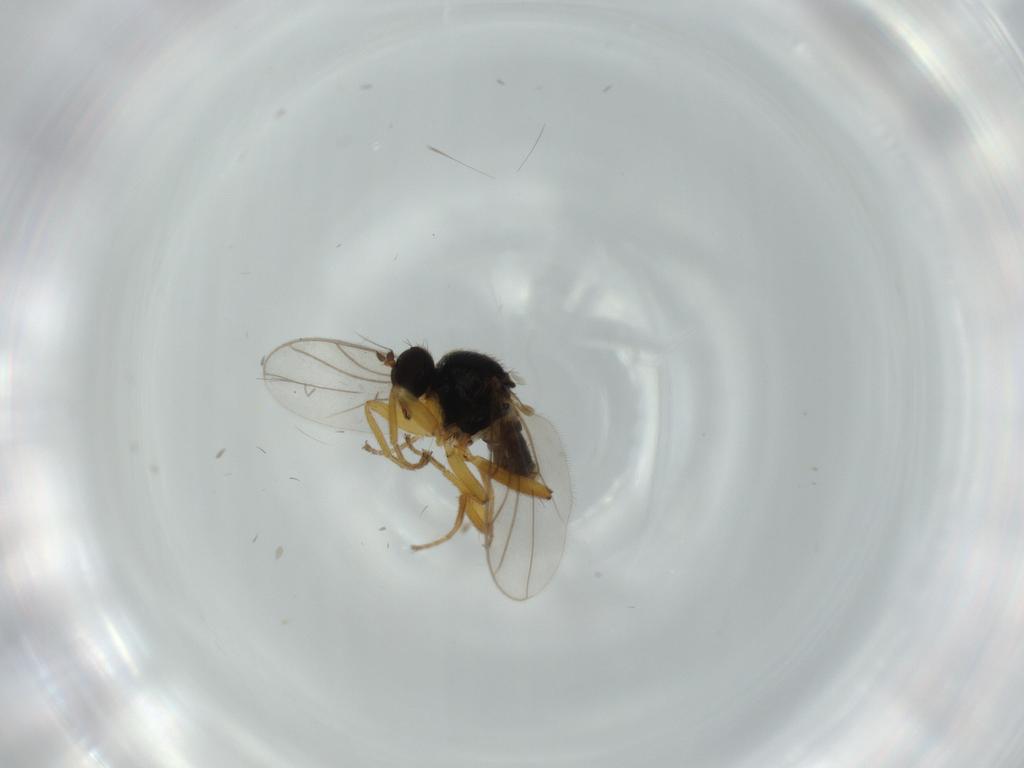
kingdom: Animalia
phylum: Arthropoda
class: Insecta
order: Diptera
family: Hybotidae
